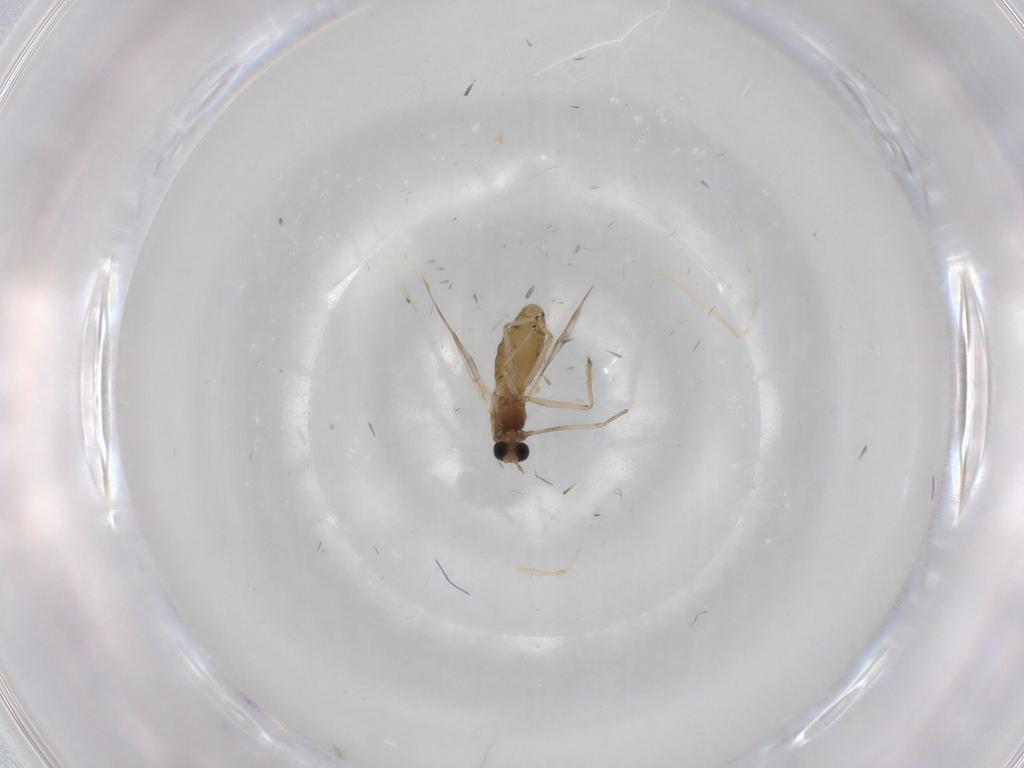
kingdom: Animalia
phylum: Arthropoda
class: Insecta
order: Diptera
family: Chironomidae
